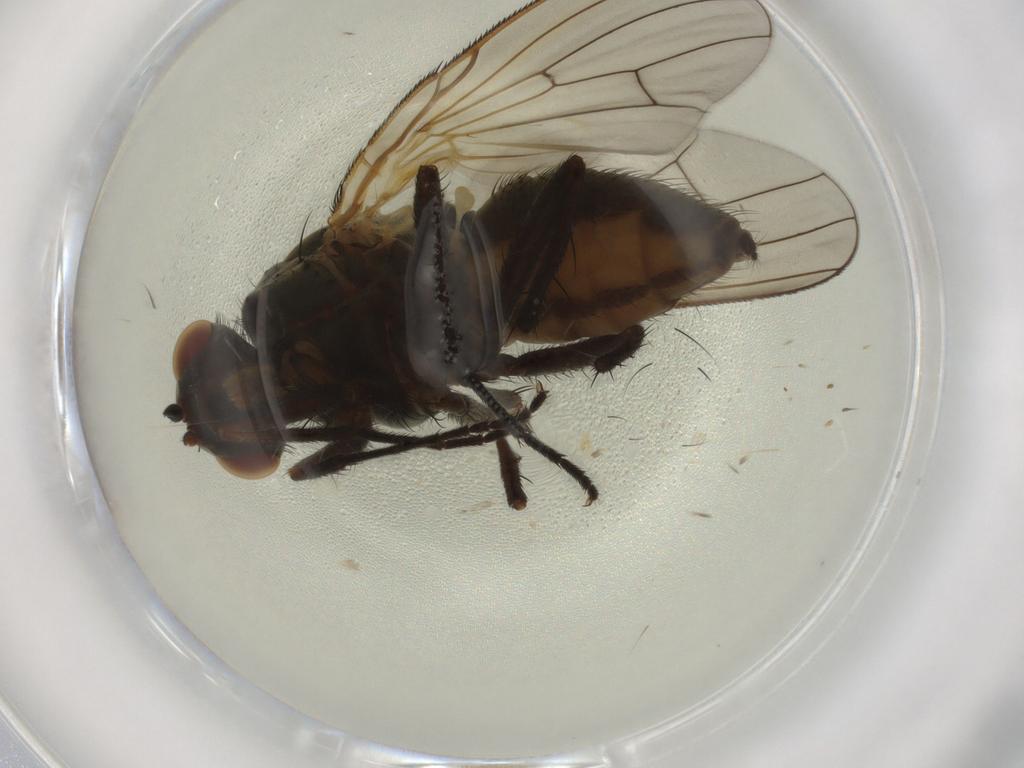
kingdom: Animalia
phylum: Arthropoda
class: Insecta
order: Diptera
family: Anthomyiidae
